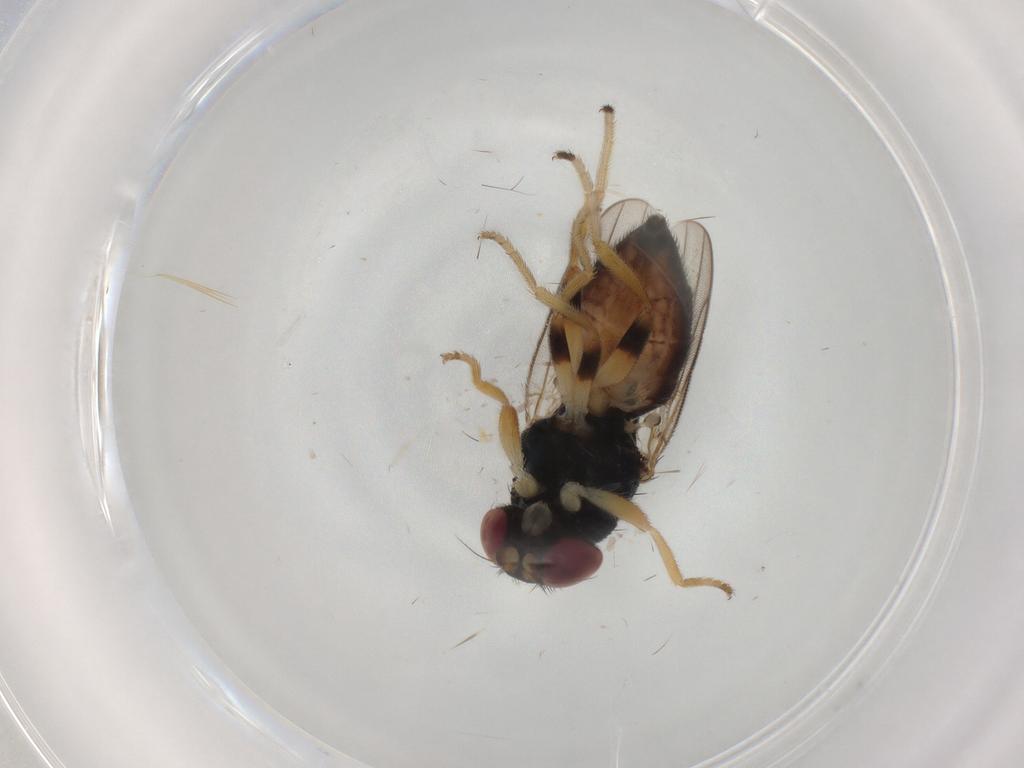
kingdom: Animalia
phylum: Arthropoda
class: Insecta
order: Diptera
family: Chloropidae
